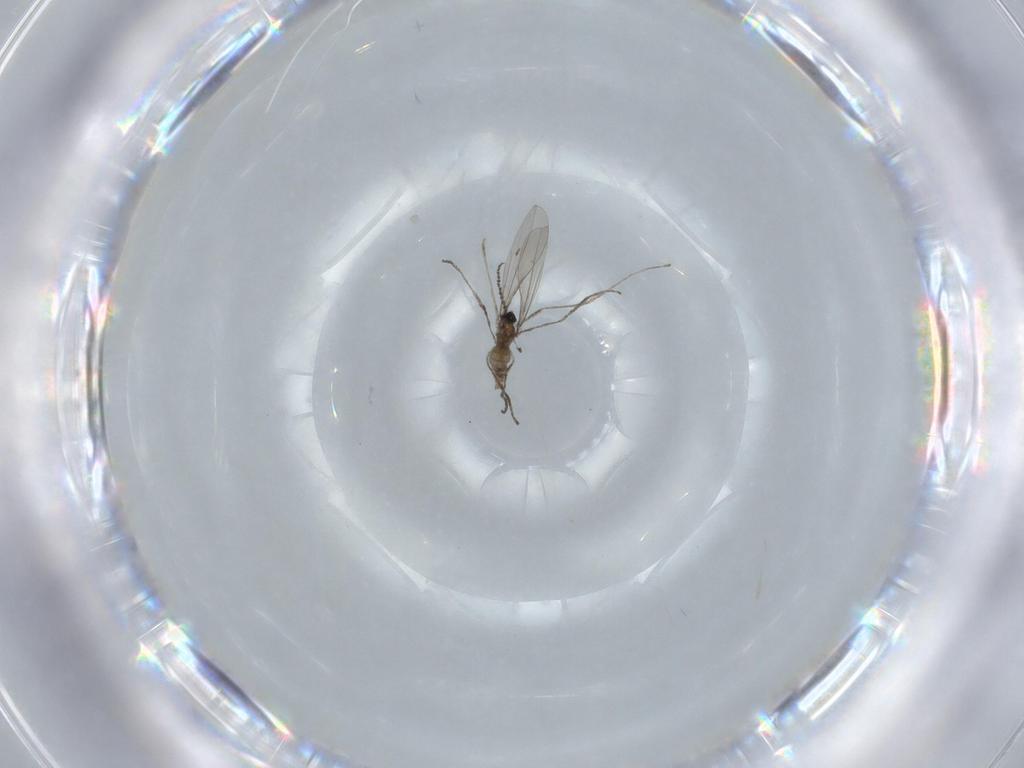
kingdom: Animalia
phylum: Arthropoda
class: Insecta
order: Diptera
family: Cecidomyiidae
